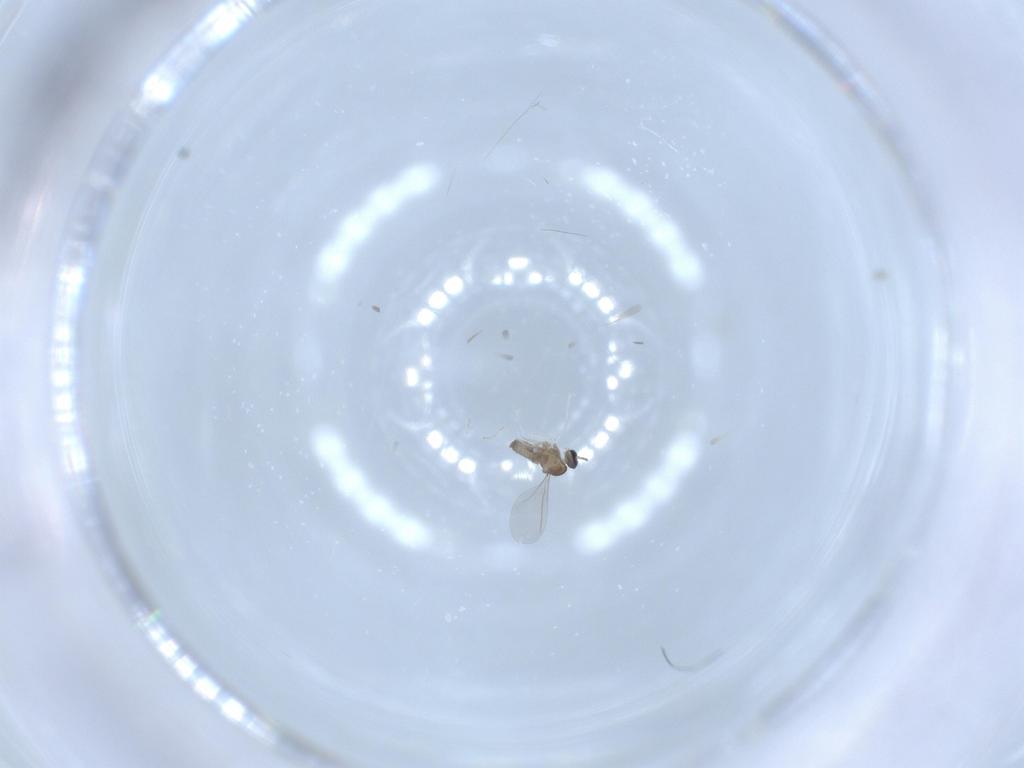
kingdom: Animalia
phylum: Arthropoda
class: Insecta
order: Diptera
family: Cecidomyiidae
